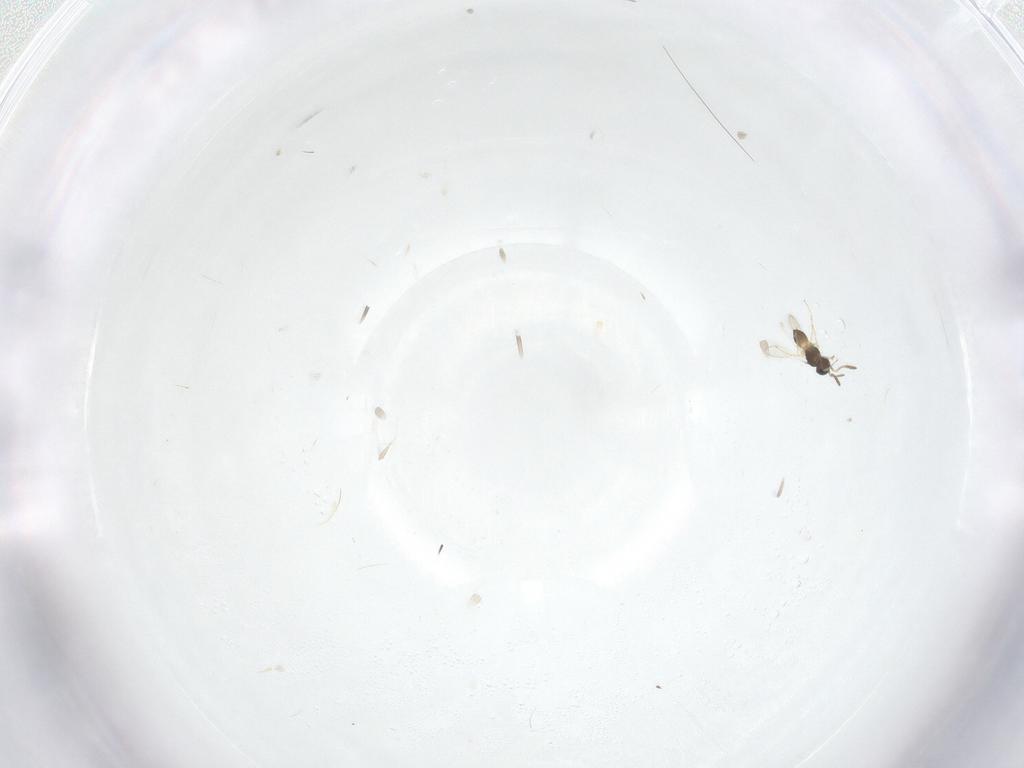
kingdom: Animalia
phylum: Arthropoda
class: Insecta
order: Hymenoptera
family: Scelionidae
